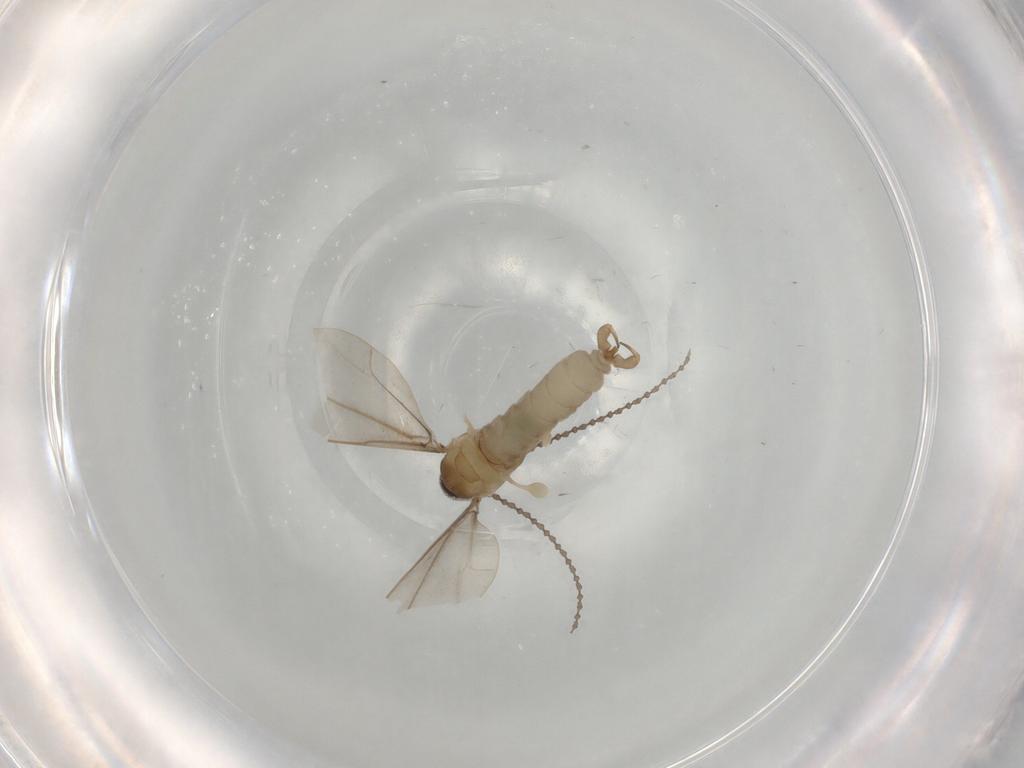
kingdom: Animalia
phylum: Arthropoda
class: Insecta
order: Diptera
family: Cecidomyiidae
